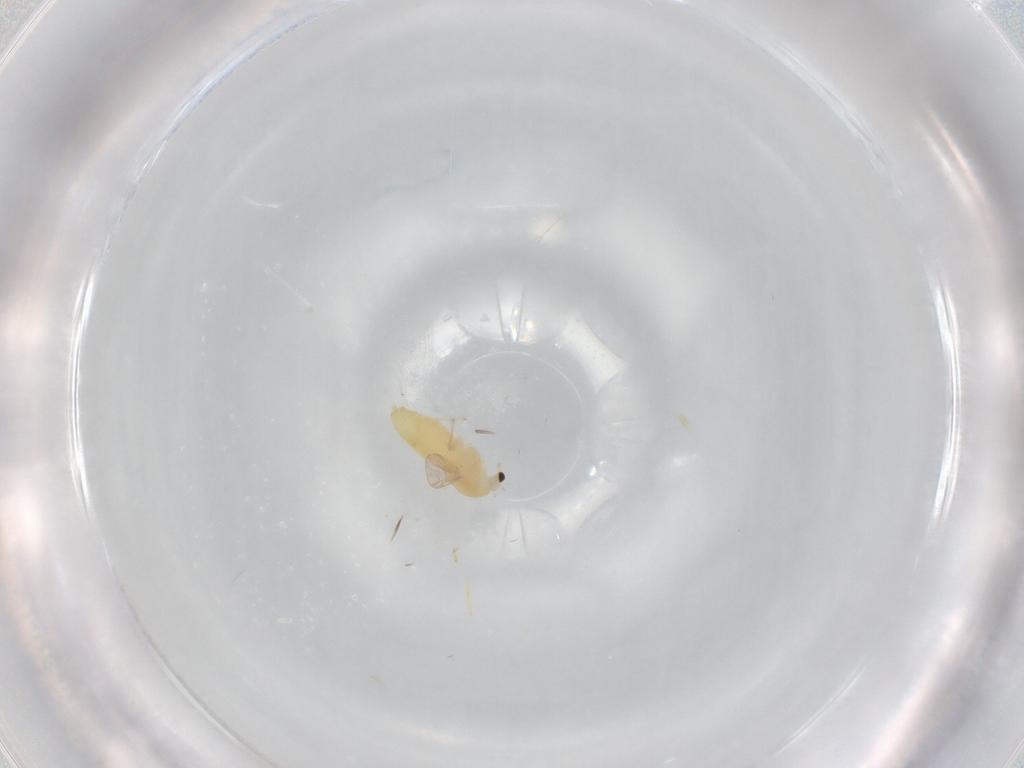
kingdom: Animalia
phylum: Arthropoda
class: Insecta
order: Diptera
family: Chironomidae
